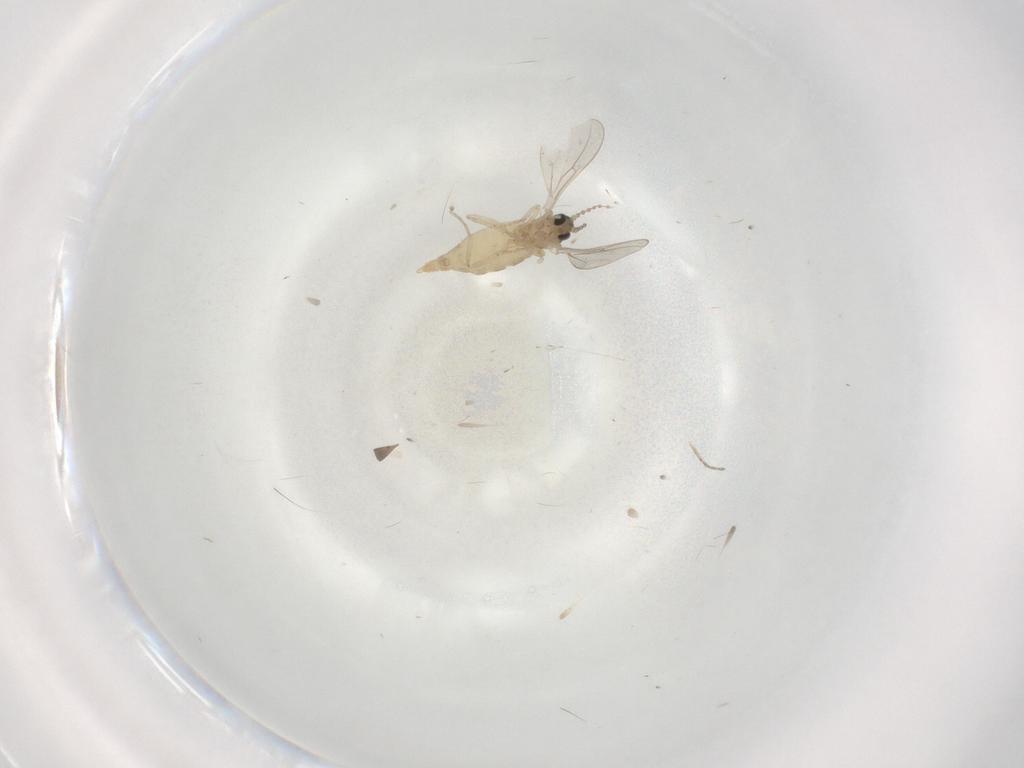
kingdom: Animalia
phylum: Arthropoda
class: Insecta
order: Diptera
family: Cecidomyiidae
